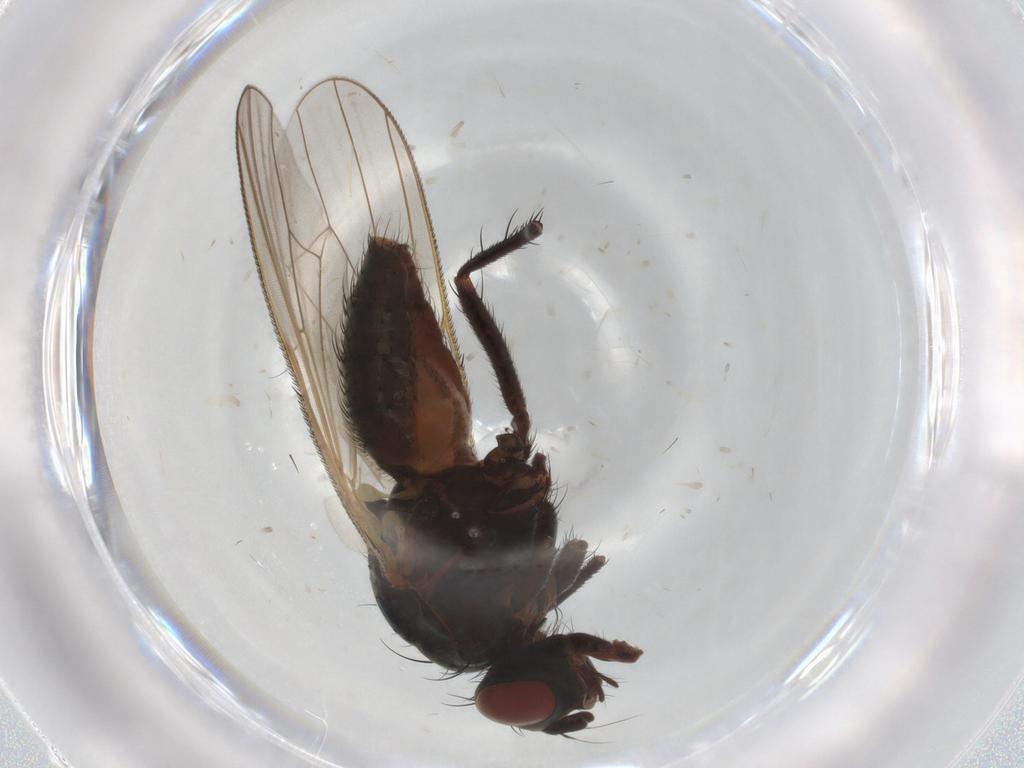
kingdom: Animalia
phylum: Arthropoda
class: Insecta
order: Diptera
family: Anthomyiidae
